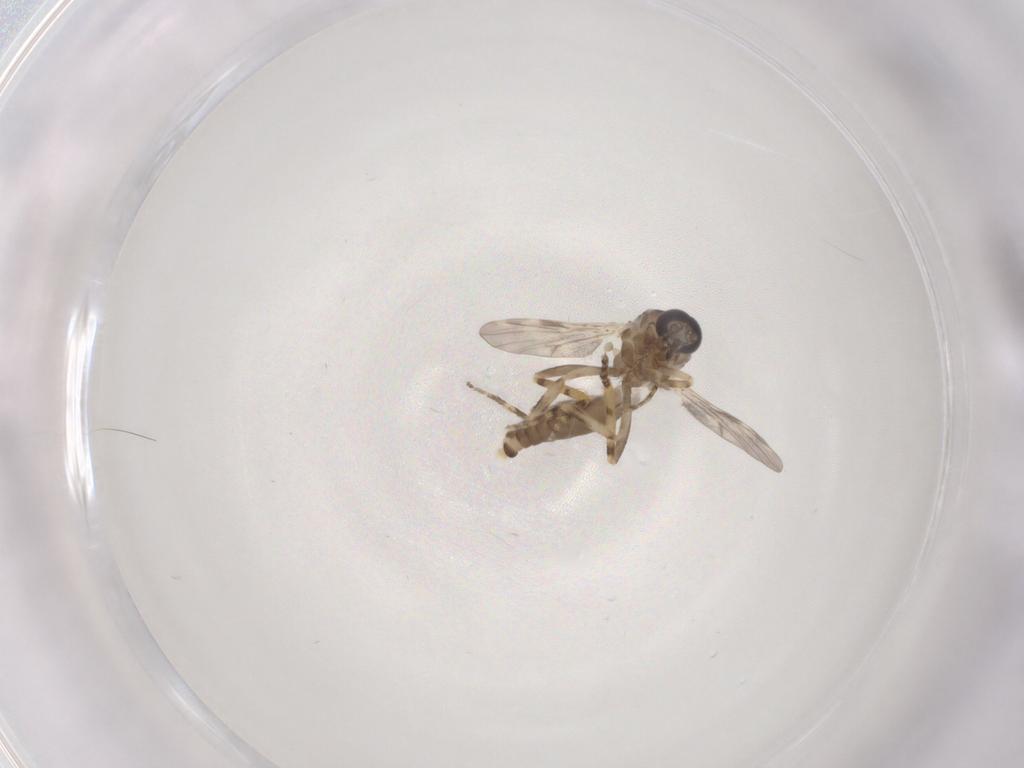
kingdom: Animalia
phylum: Arthropoda
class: Insecta
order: Diptera
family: Ceratopogonidae
